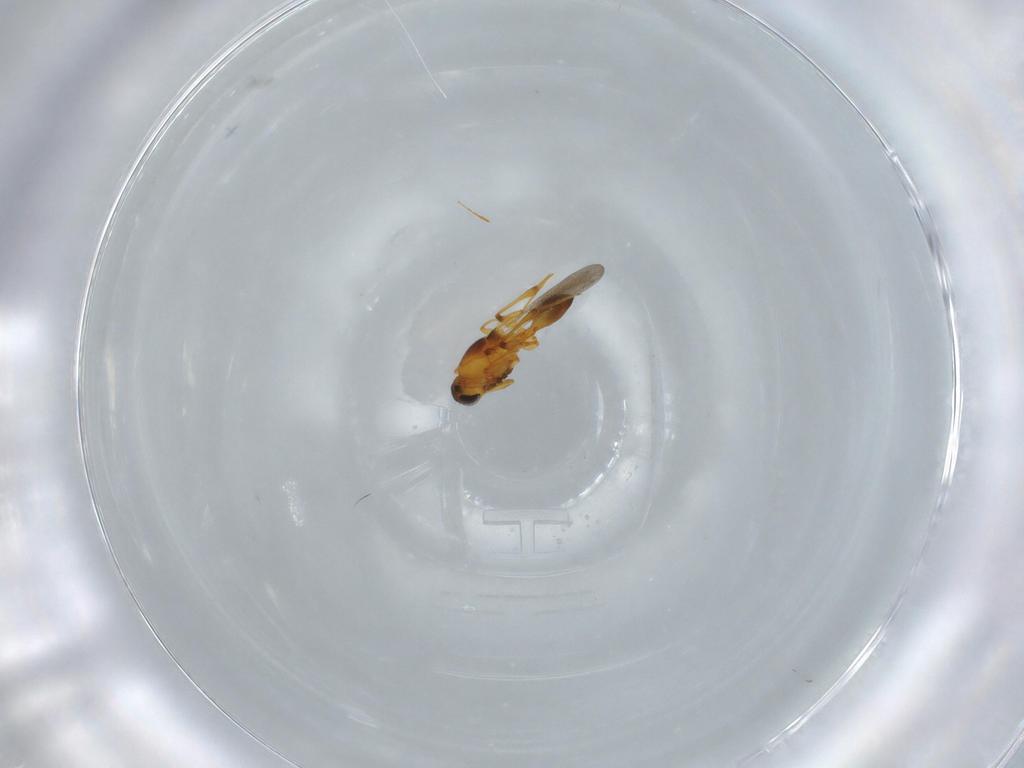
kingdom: Animalia
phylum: Arthropoda
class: Insecta
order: Hymenoptera
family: Platygastridae
